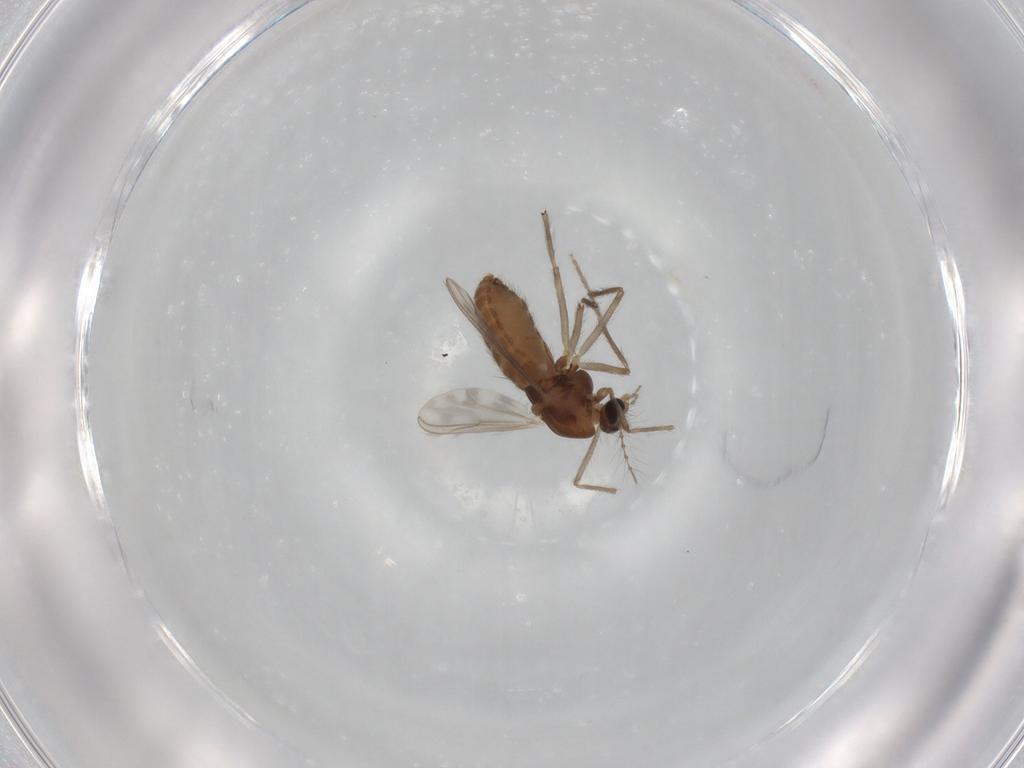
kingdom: Animalia
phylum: Arthropoda
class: Insecta
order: Diptera
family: Chironomidae
